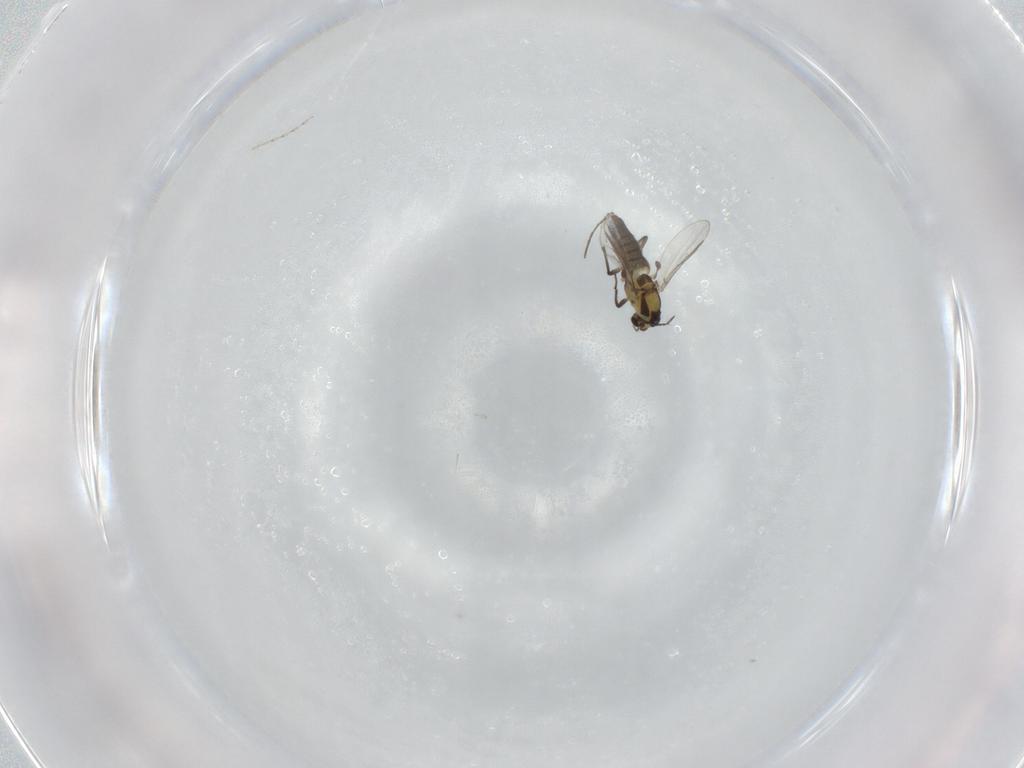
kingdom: Animalia
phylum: Arthropoda
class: Insecta
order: Diptera
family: Chironomidae
